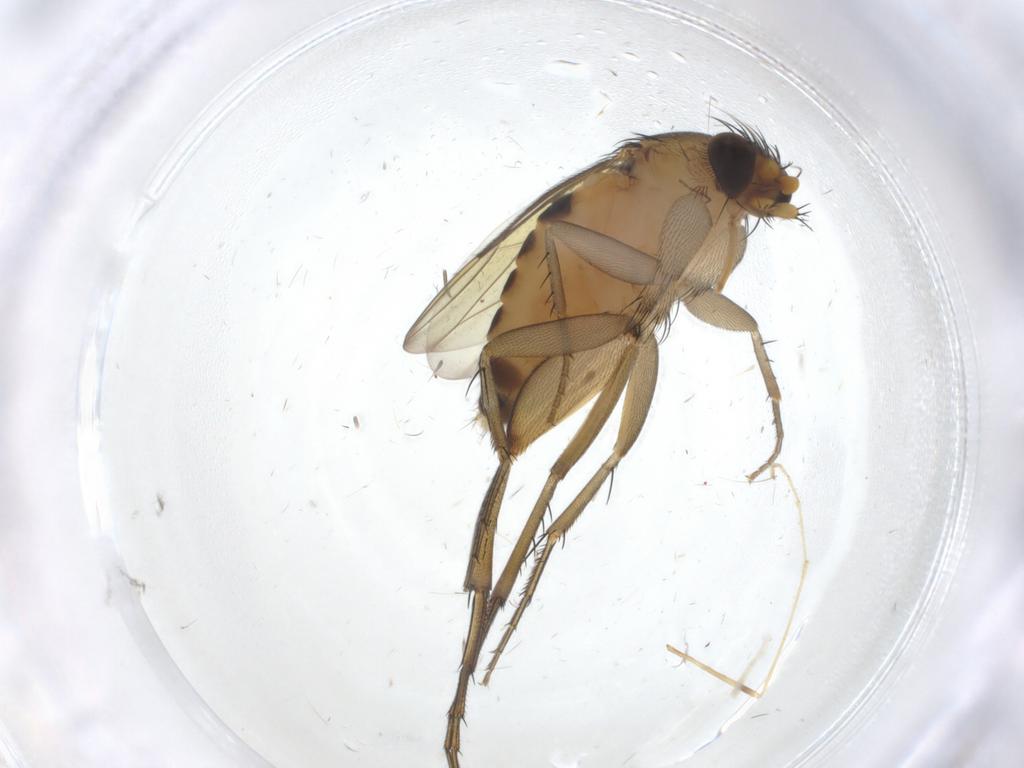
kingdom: Animalia
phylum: Arthropoda
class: Insecta
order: Diptera
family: Phoridae
